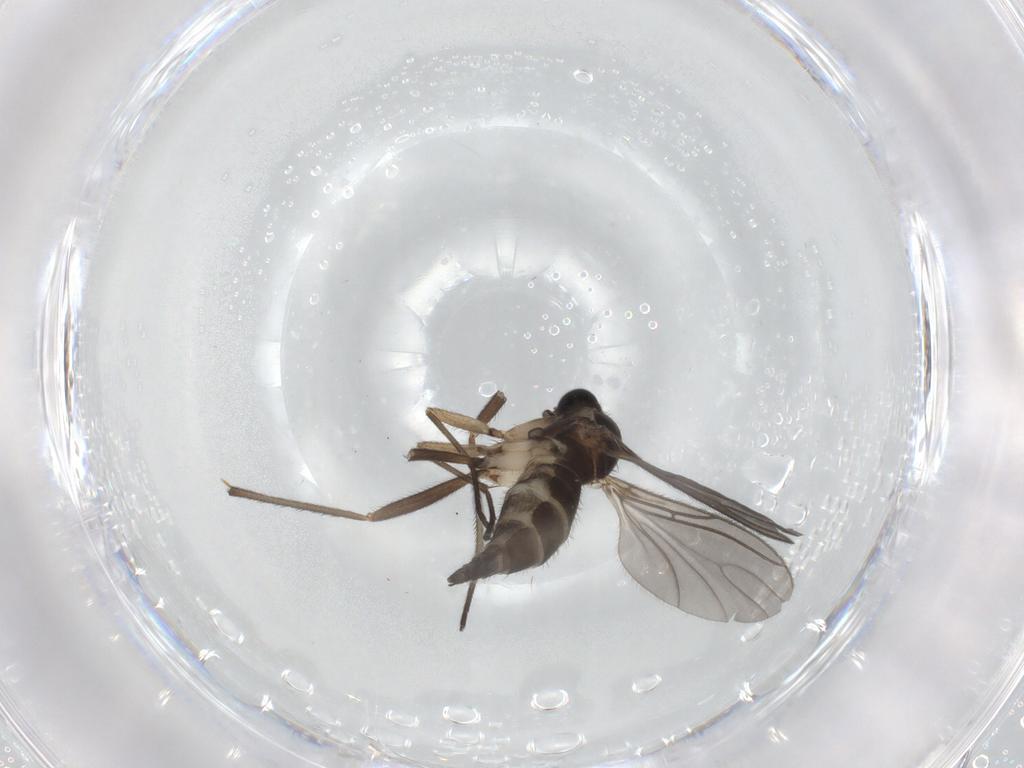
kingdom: Animalia
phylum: Arthropoda
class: Insecta
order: Diptera
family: Sciaridae
